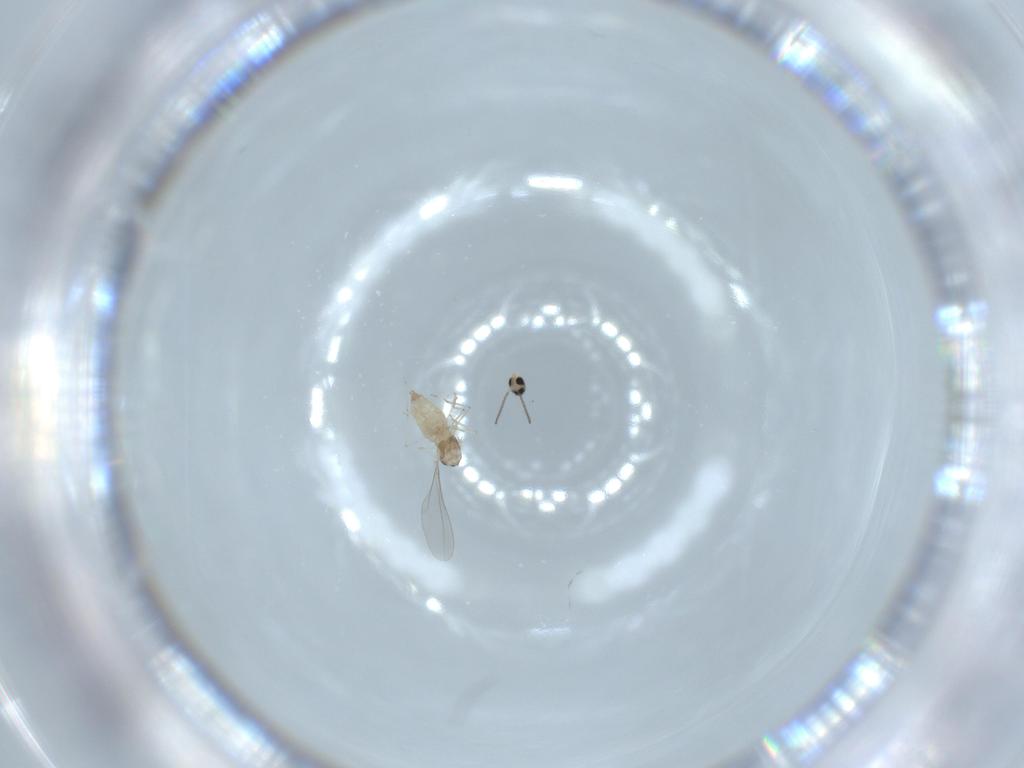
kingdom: Animalia
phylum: Arthropoda
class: Insecta
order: Diptera
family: Cecidomyiidae
